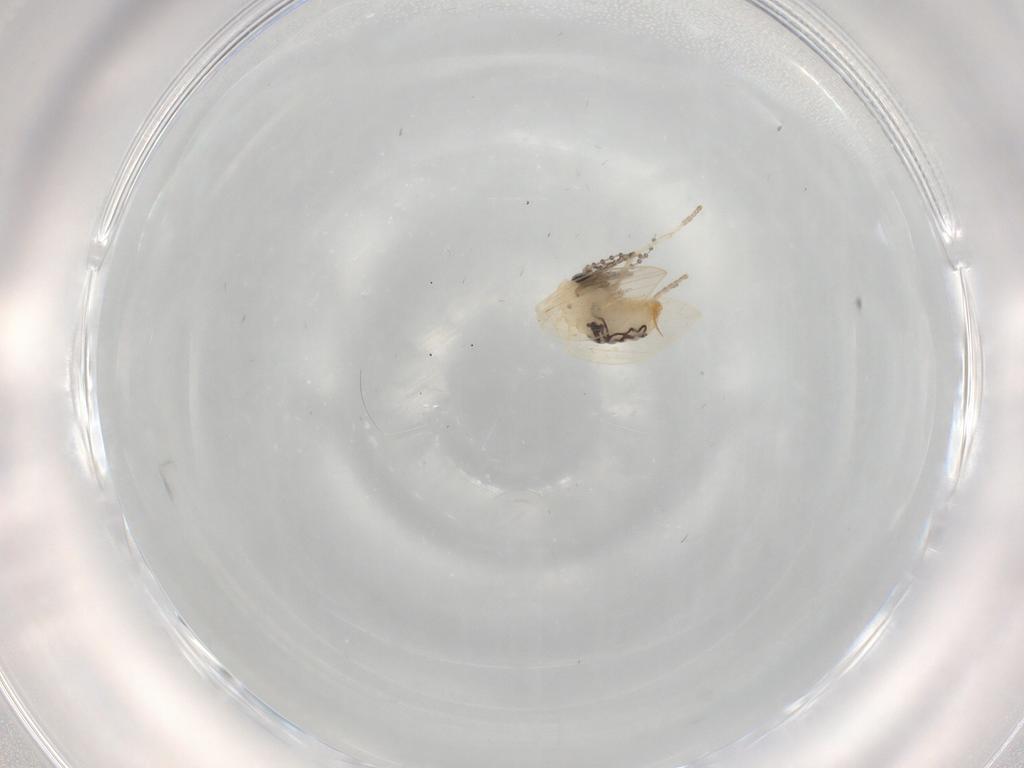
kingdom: Animalia
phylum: Arthropoda
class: Insecta
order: Diptera
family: Psychodidae
